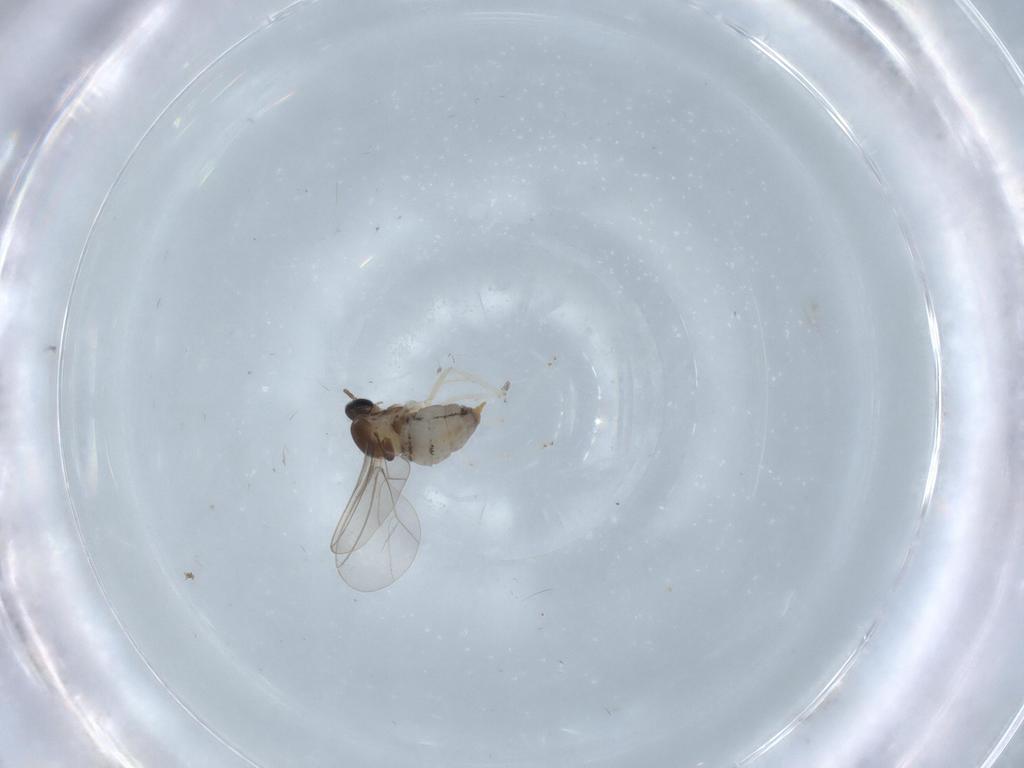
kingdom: Animalia
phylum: Arthropoda
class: Insecta
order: Diptera
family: Cecidomyiidae
